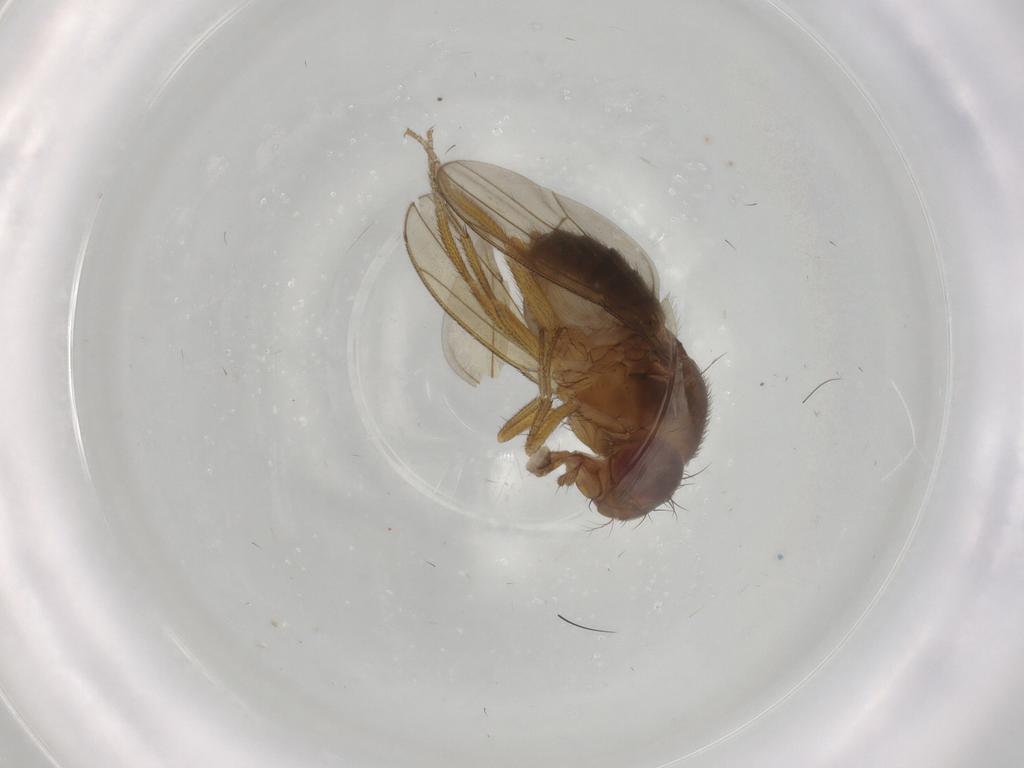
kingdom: Animalia
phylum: Arthropoda
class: Insecta
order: Diptera
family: Drosophilidae
